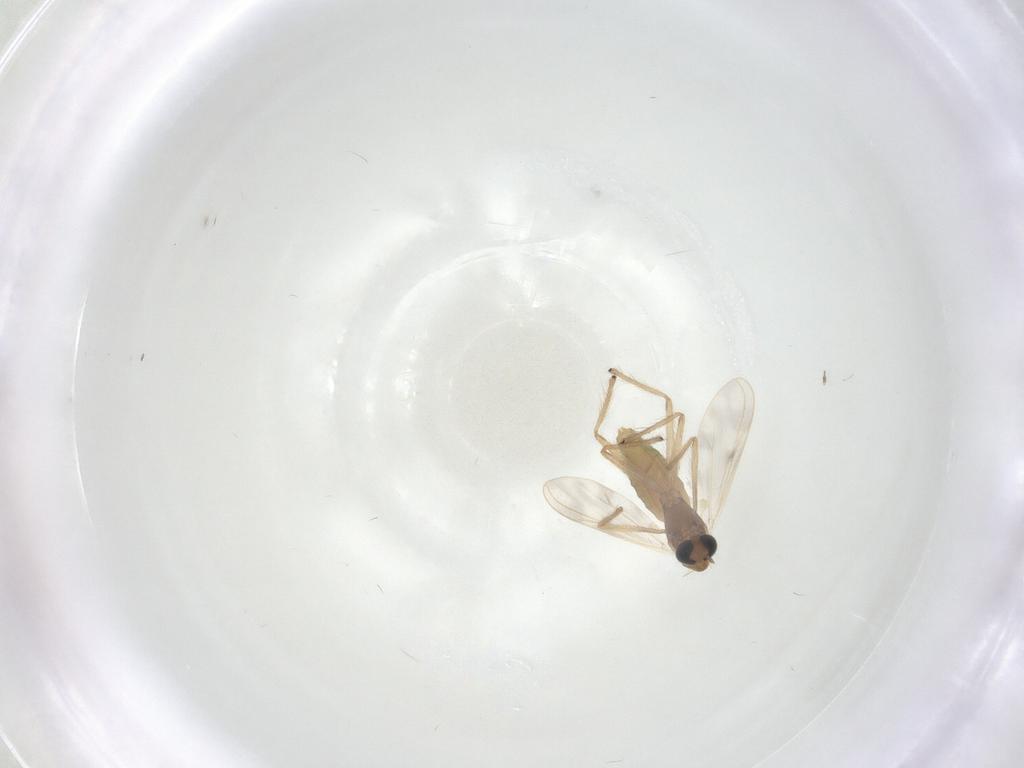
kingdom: Animalia
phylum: Arthropoda
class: Insecta
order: Diptera
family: Chironomidae
